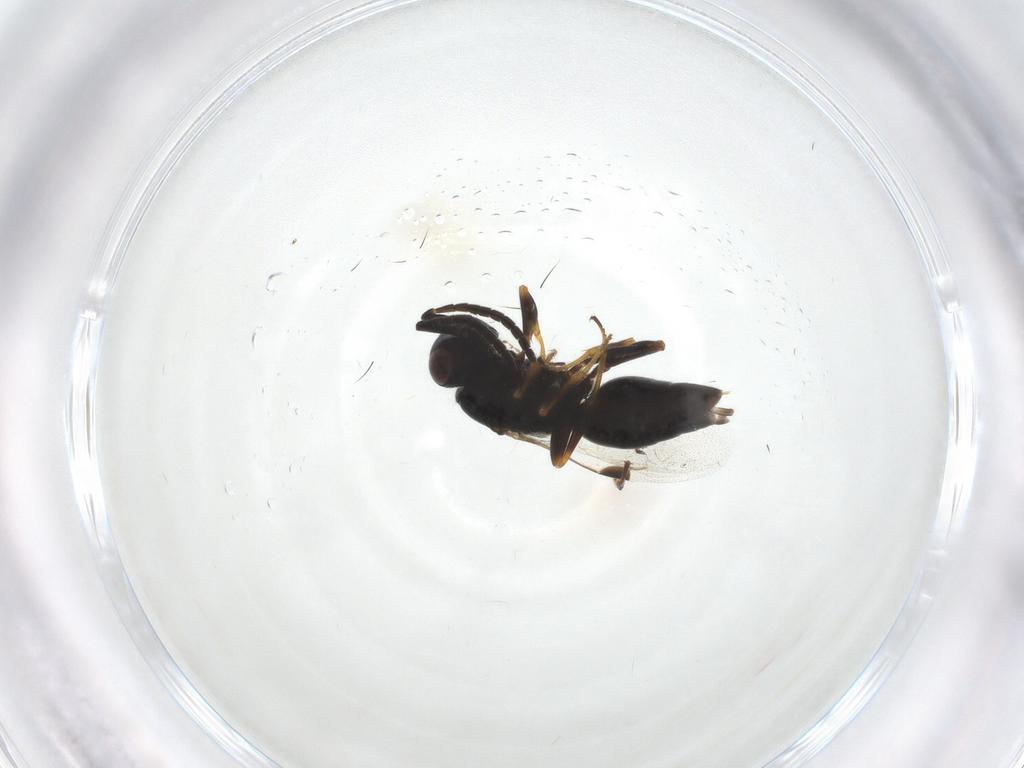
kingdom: Animalia
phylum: Arthropoda
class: Insecta
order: Hymenoptera
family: Megaspilidae
